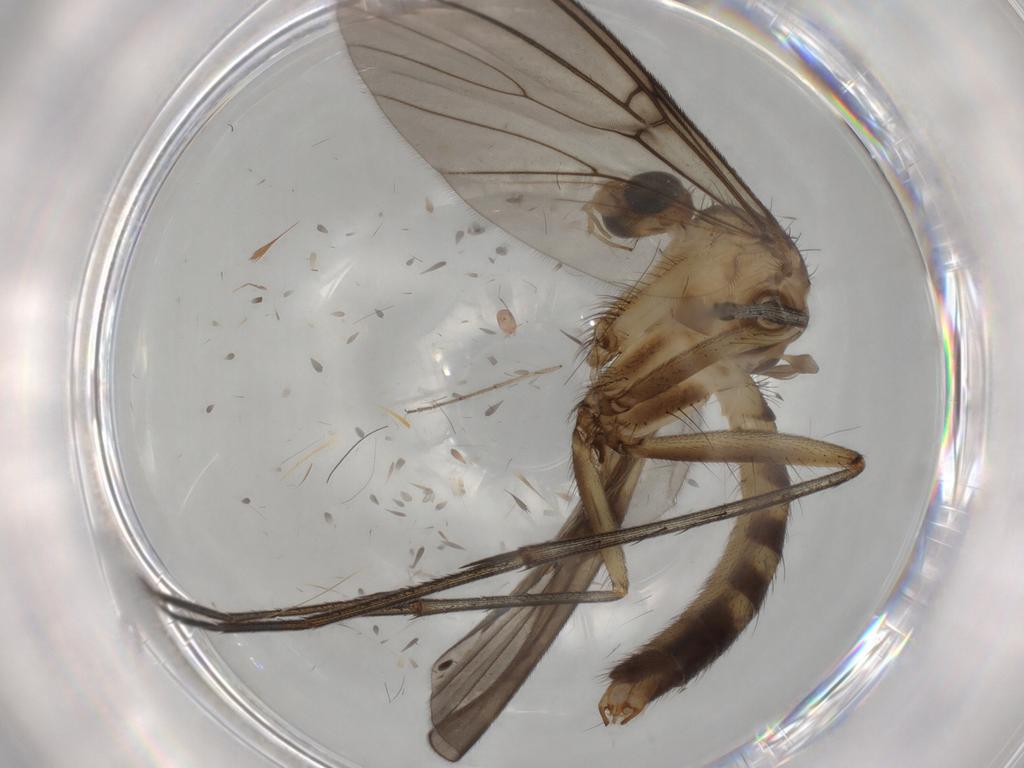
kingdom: Animalia
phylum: Arthropoda
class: Insecta
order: Diptera
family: Mycetophilidae
